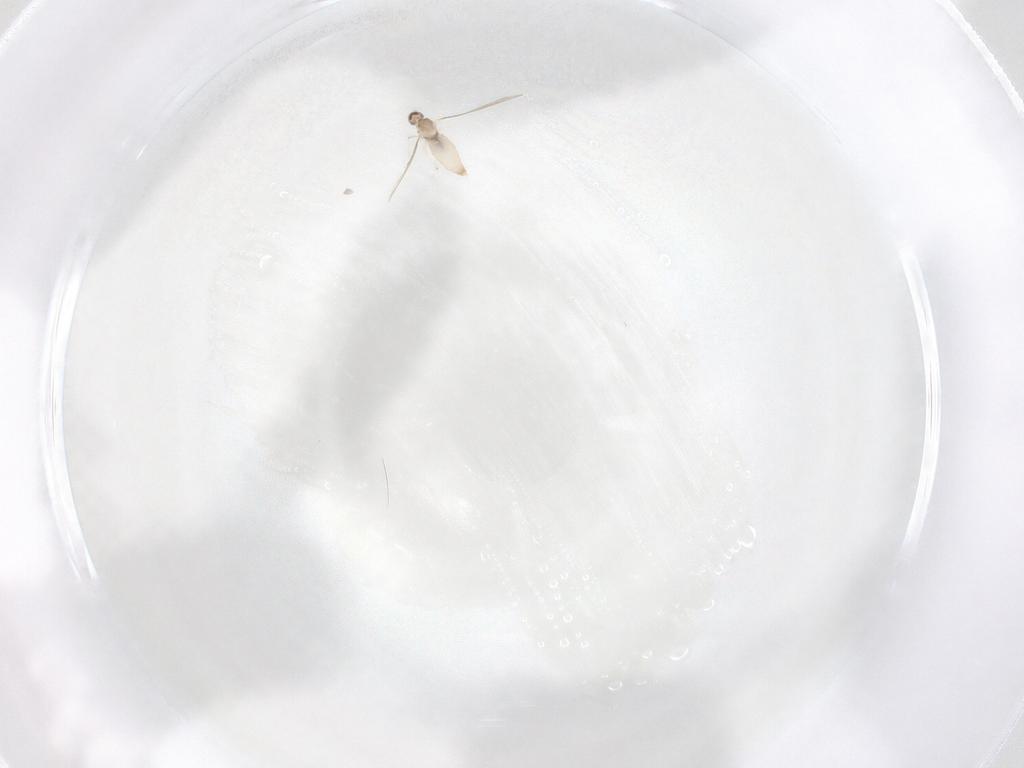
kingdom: Animalia
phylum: Arthropoda
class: Insecta
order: Diptera
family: Cecidomyiidae
